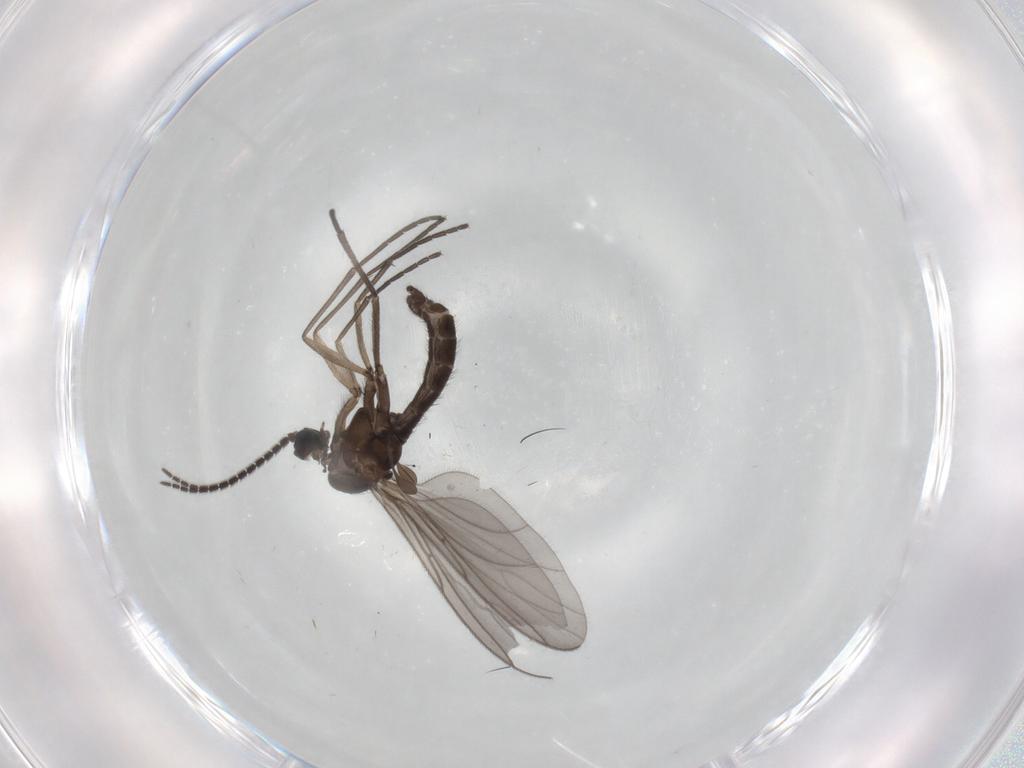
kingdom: Animalia
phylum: Arthropoda
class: Insecta
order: Diptera
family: Sciaridae
